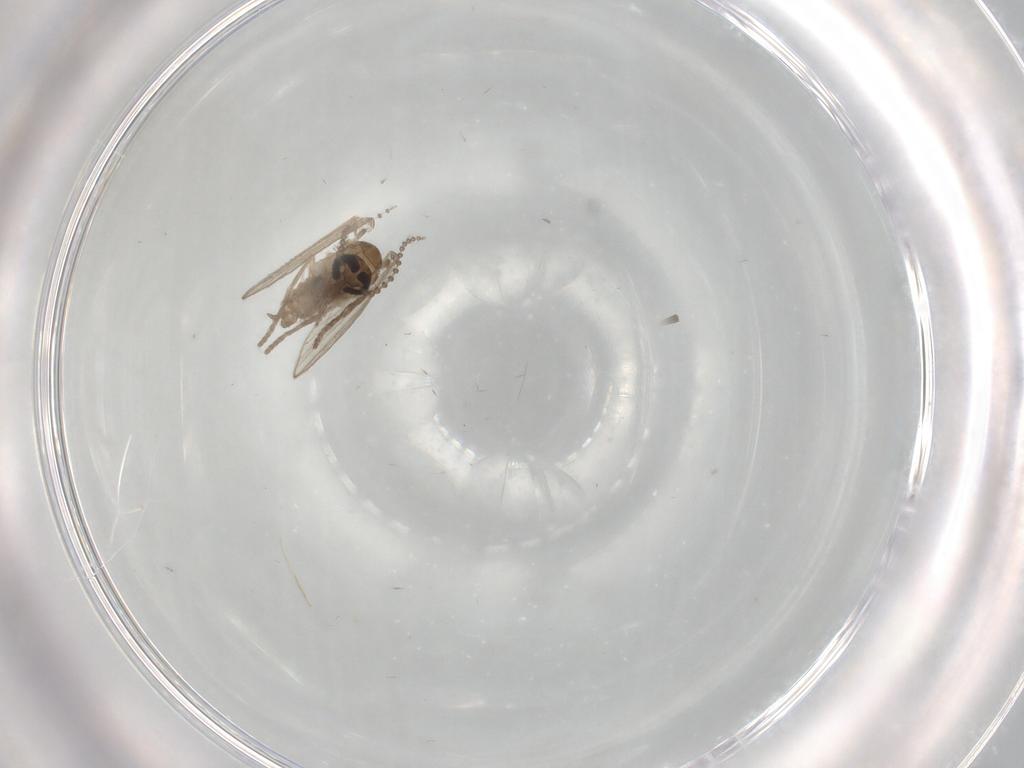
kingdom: Animalia
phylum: Arthropoda
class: Insecta
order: Diptera
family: Psychodidae
